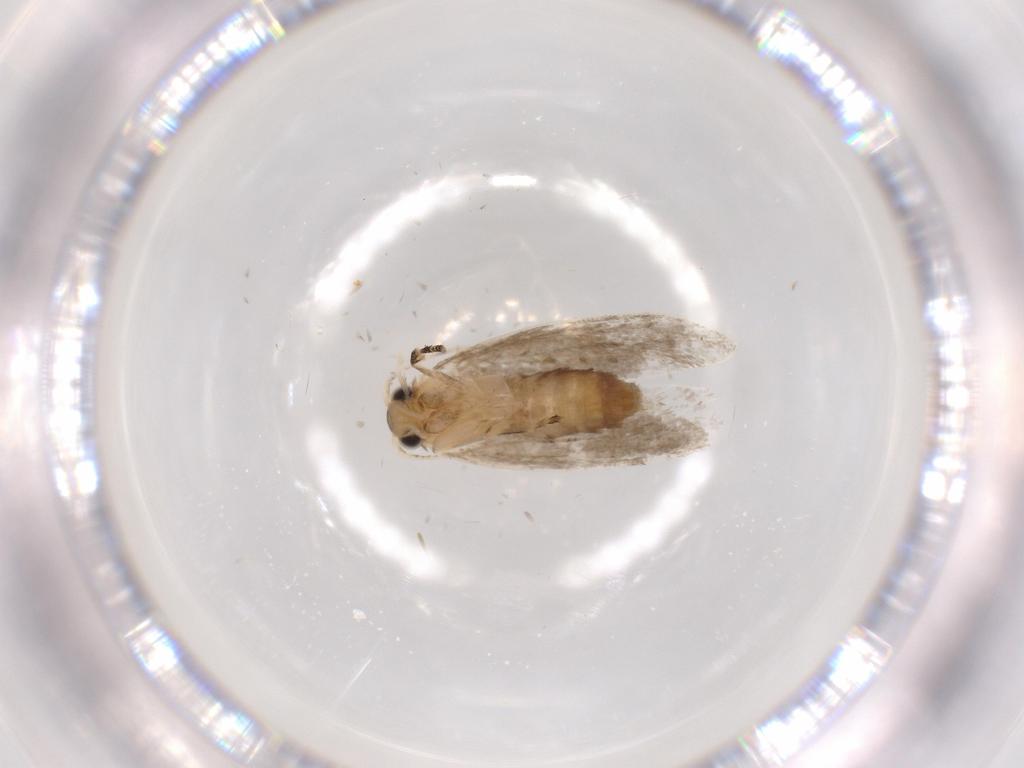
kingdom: Animalia
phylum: Arthropoda
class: Insecta
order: Lepidoptera
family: Tineidae
